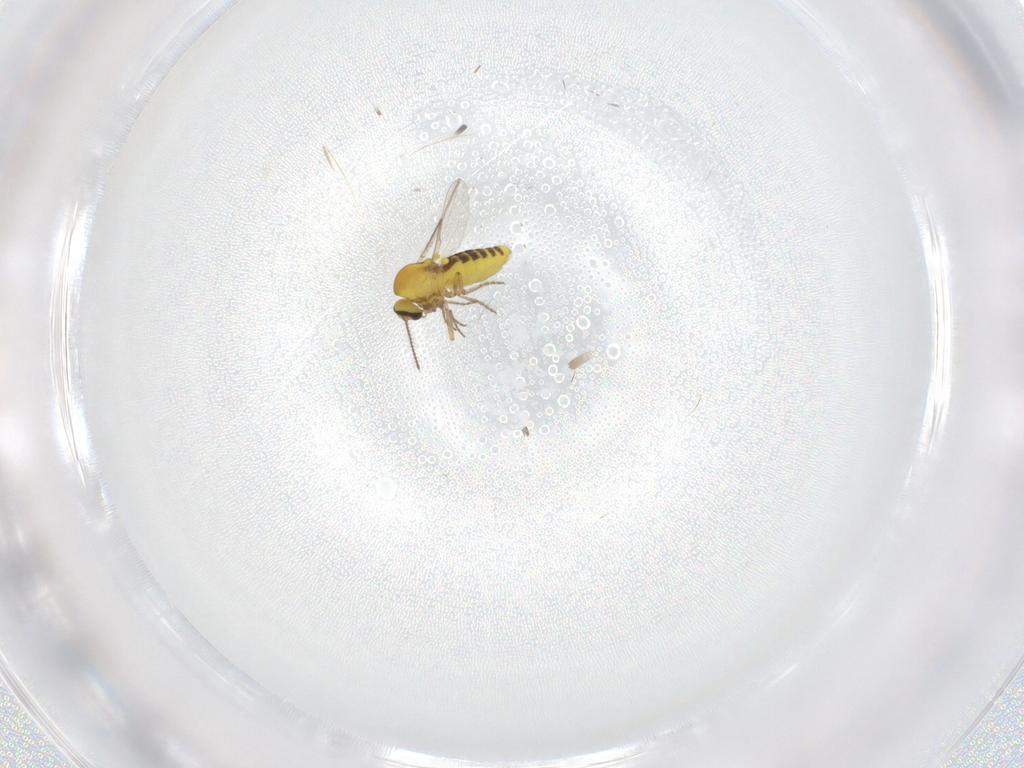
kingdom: Animalia
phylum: Arthropoda
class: Insecta
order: Diptera
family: Ceratopogonidae
